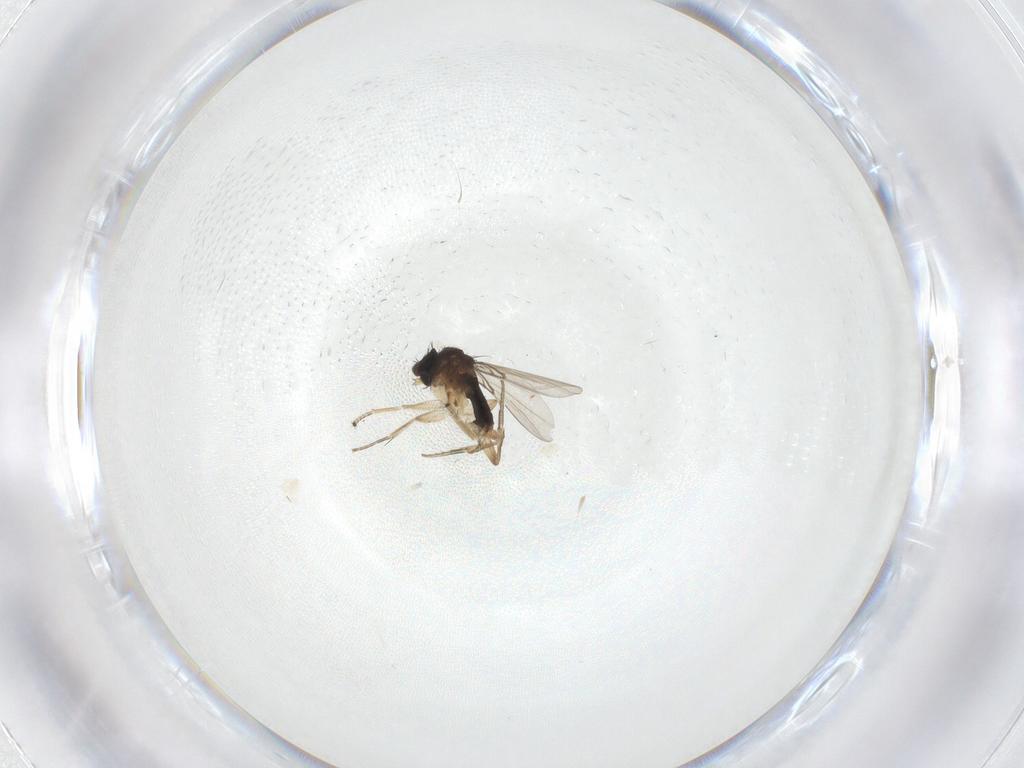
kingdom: Animalia
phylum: Arthropoda
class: Insecta
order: Diptera
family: Phoridae
